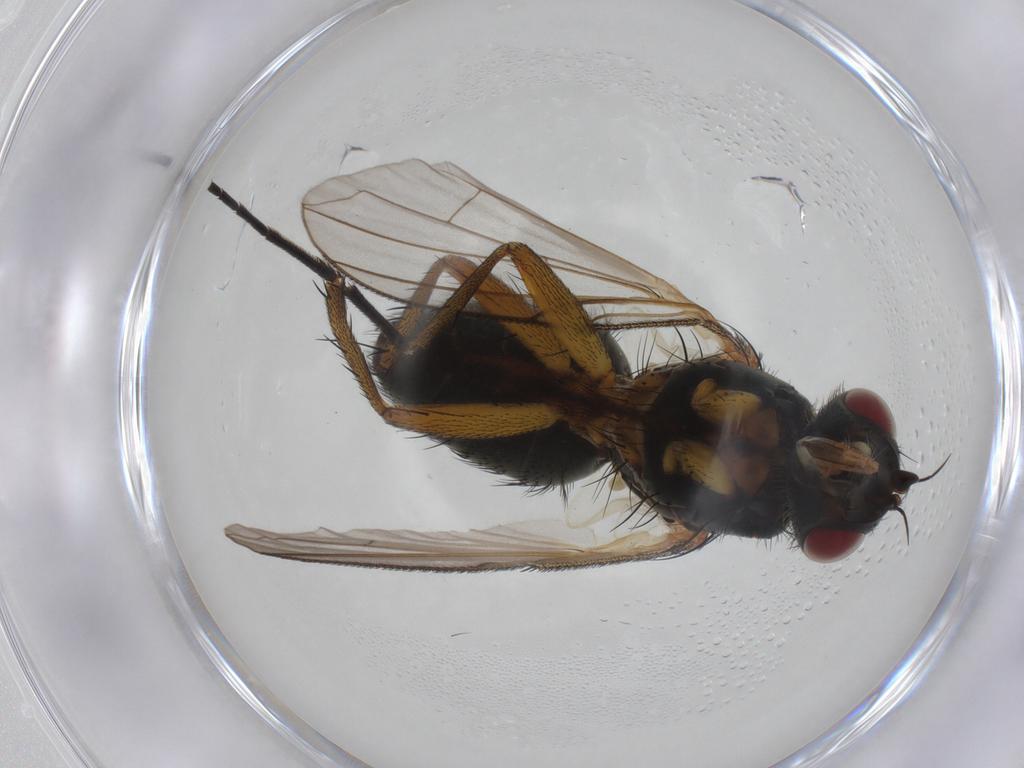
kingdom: Animalia
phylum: Arthropoda
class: Insecta
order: Diptera
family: Tachinidae
